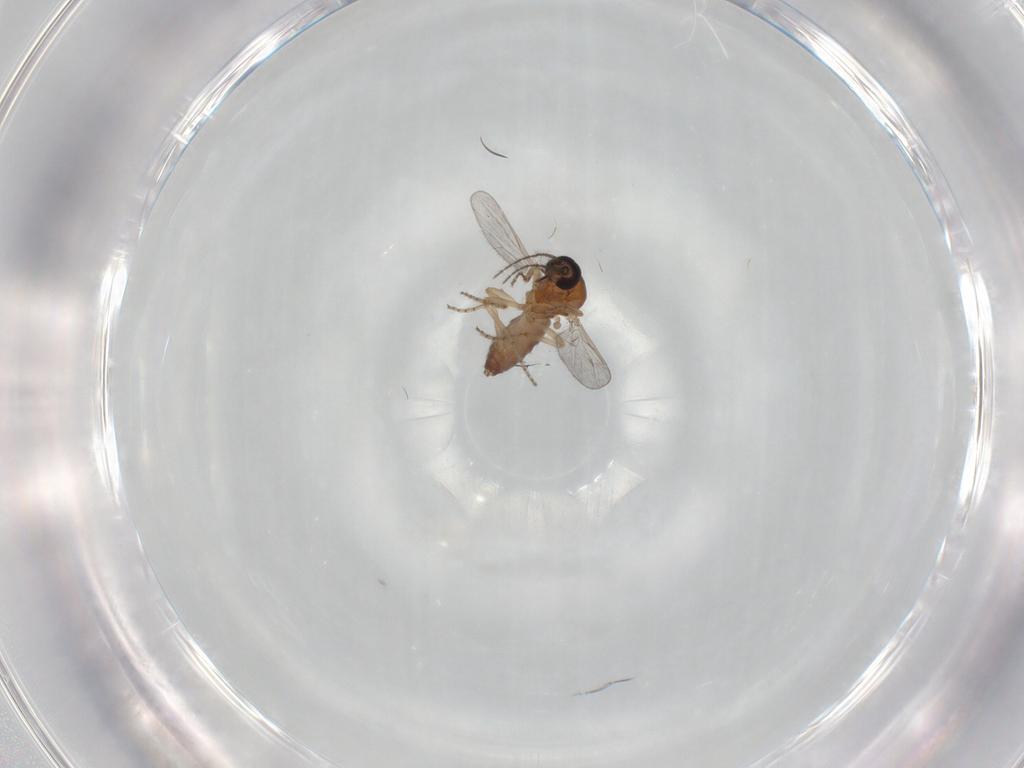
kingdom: Animalia
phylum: Arthropoda
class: Insecta
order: Diptera
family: Ceratopogonidae
